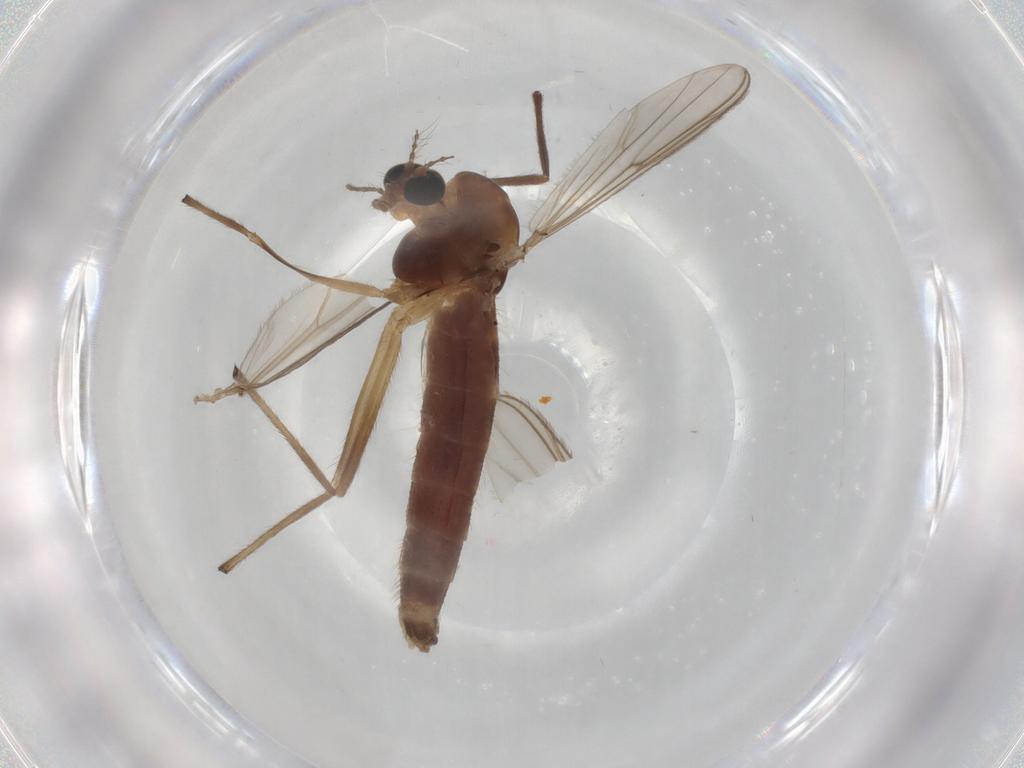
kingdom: Animalia
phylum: Arthropoda
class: Insecta
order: Diptera
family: Chironomidae
